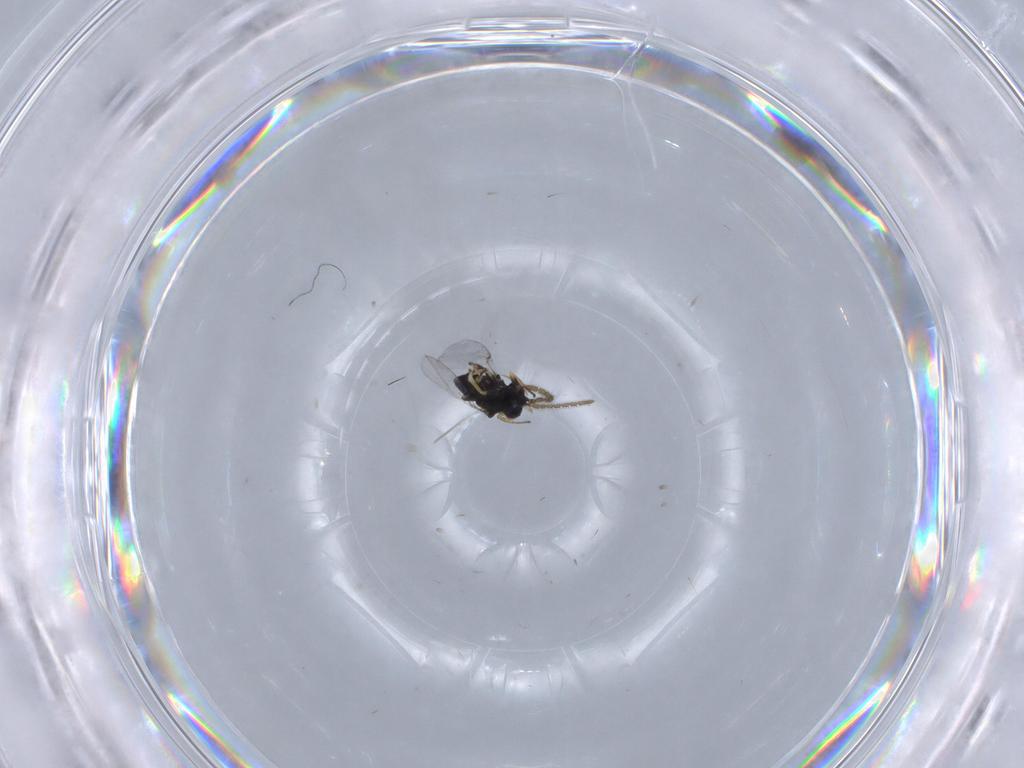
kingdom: Animalia
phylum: Arthropoda
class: Insecta
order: Hymenoptera
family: Encyrtidae
